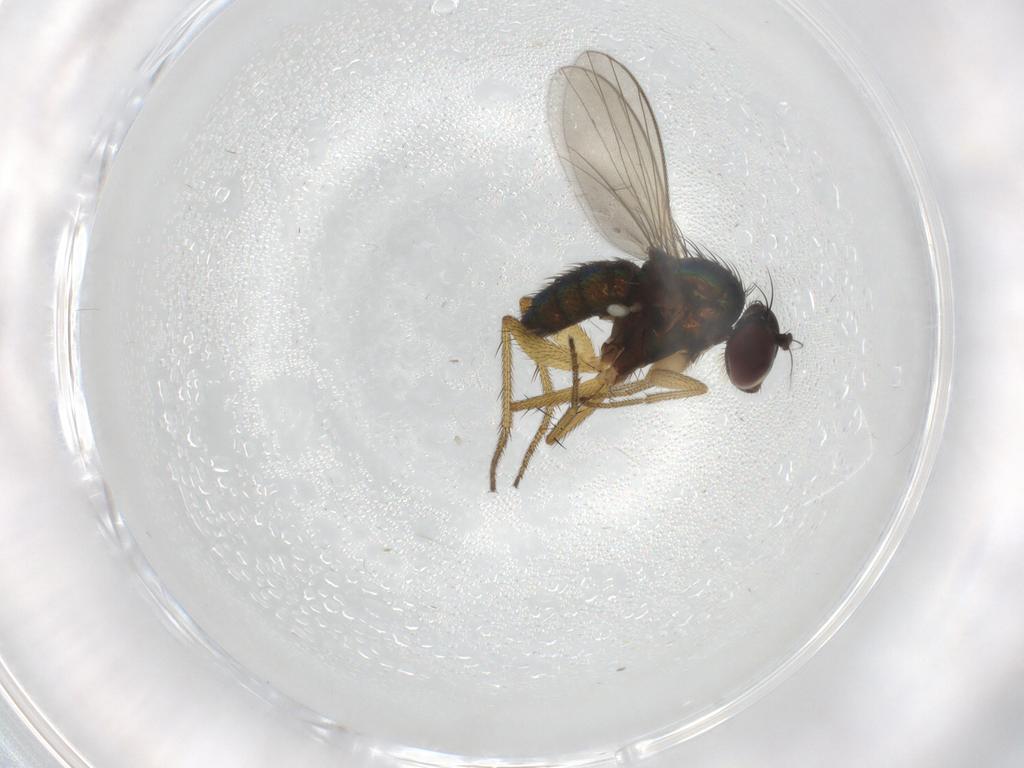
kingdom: Animalia
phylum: Arthropoda
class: Insecta
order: Diptera
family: Dolichopodidae
